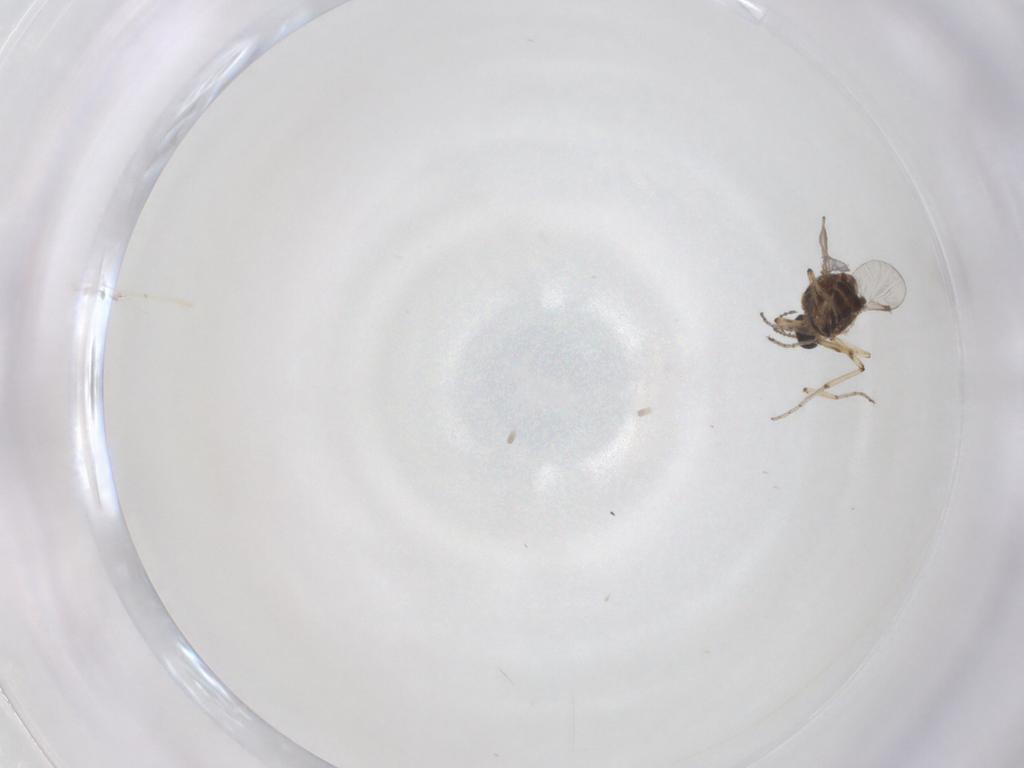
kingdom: Animalia
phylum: Arthropoda
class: Insecta
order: Diptera
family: Ceratopogonidae
